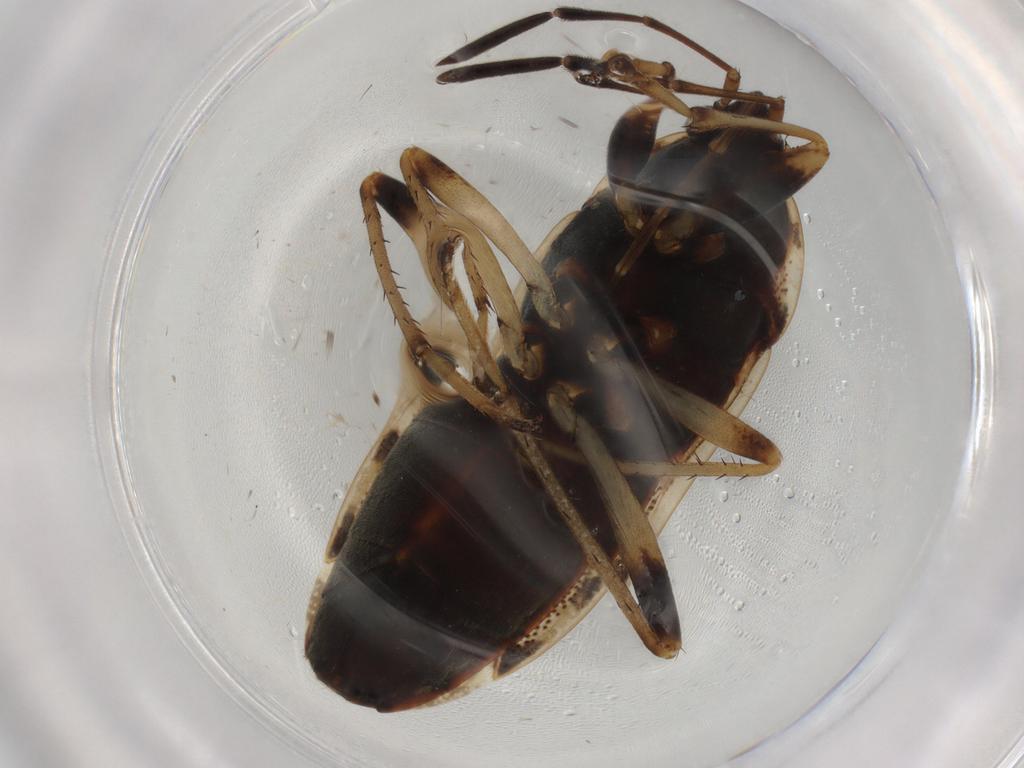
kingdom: Animalia
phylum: Arthropoda
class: Insecta
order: Hemiptera
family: Rhyparochromidae
